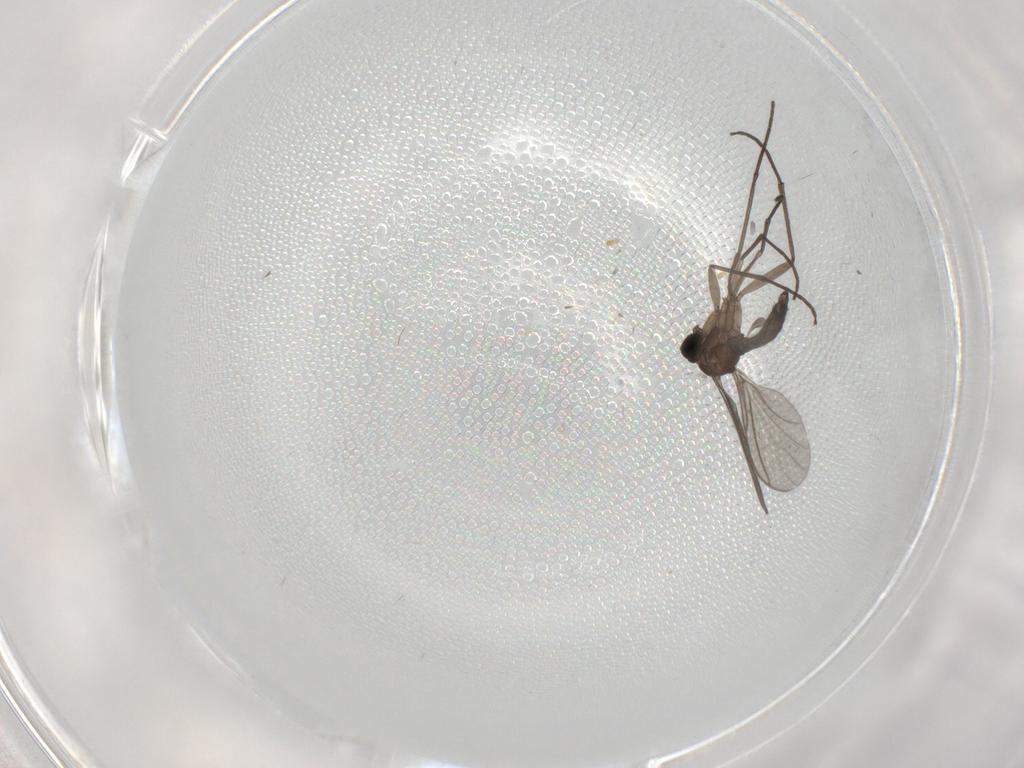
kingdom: Animalia
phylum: Arthropoda
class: Insecta
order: Diptera
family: Cecidomyiidae
